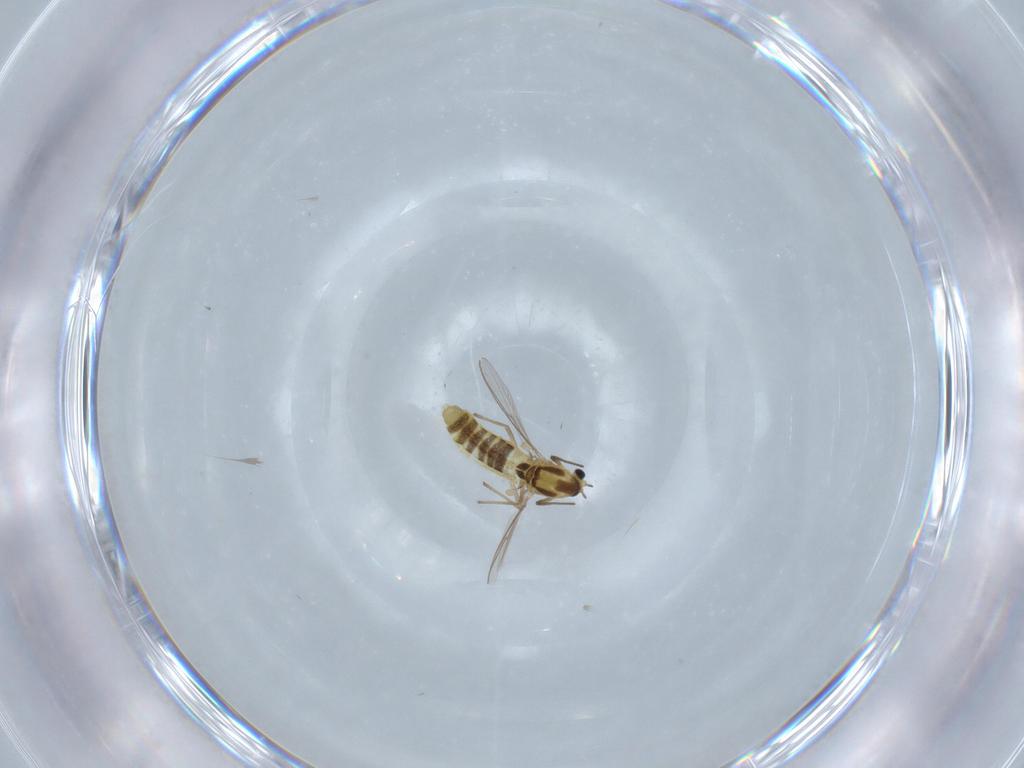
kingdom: Animalia
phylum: Arthropoda
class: Insecta
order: Diptera
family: Chironomidae
